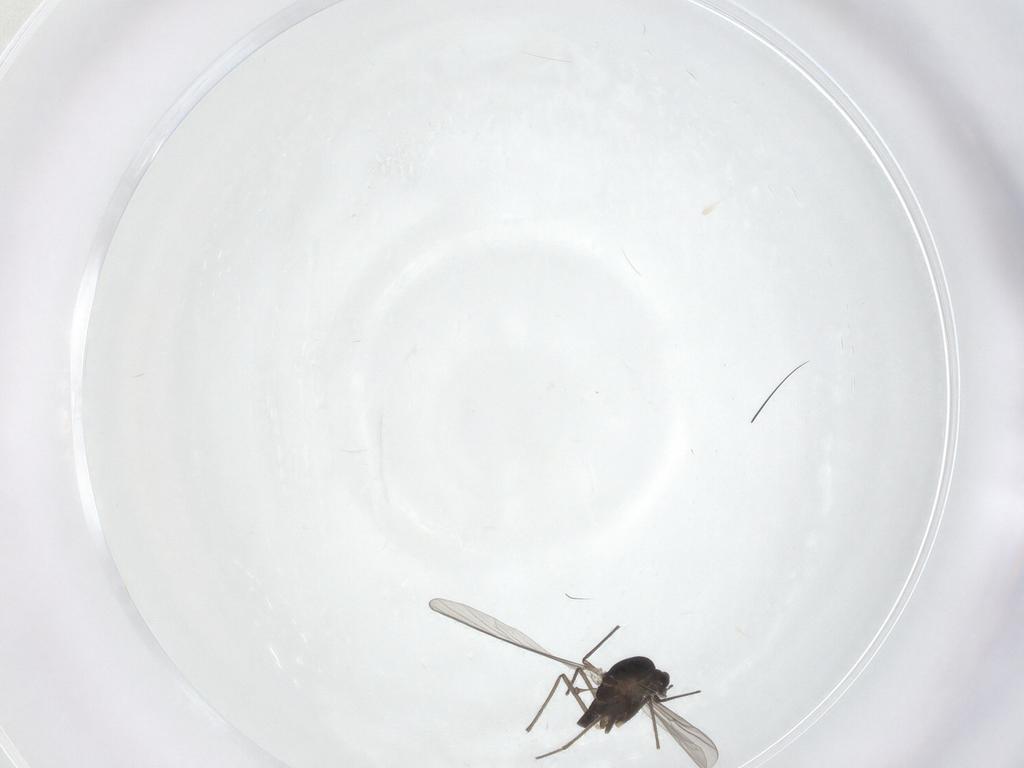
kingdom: Animalia
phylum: Arthropoda
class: Insecta
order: Diptera
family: Chironomidae
